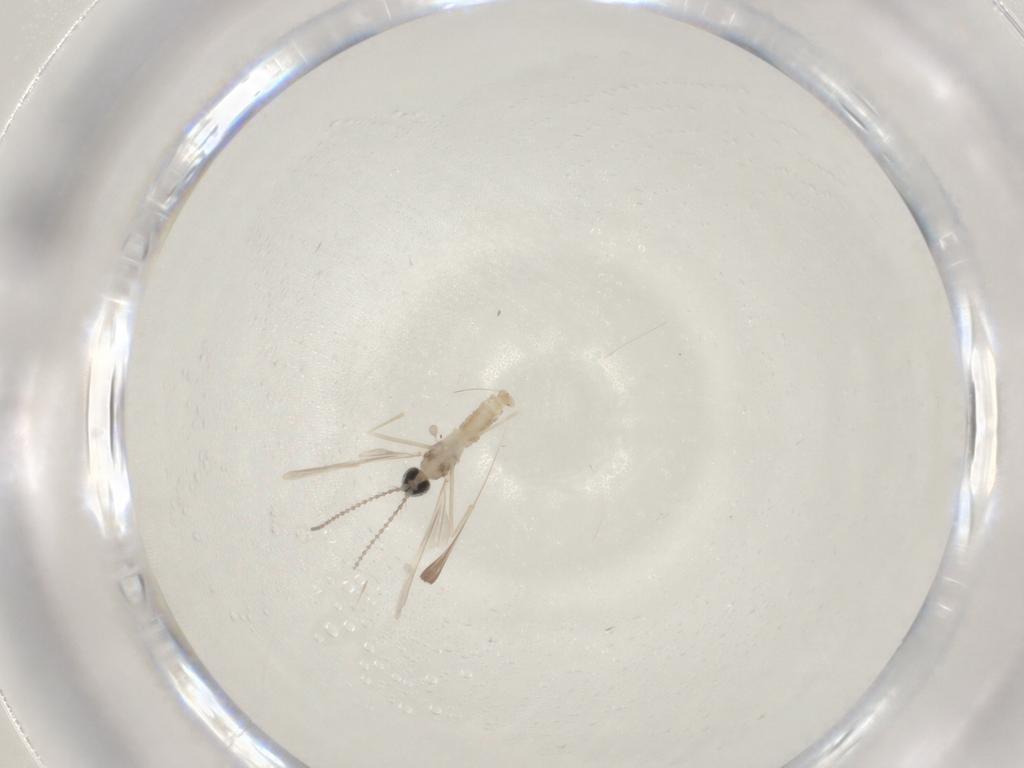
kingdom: Animalia
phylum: Arthropoda
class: Insecta
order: Diptera
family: Cecidomyiidae
